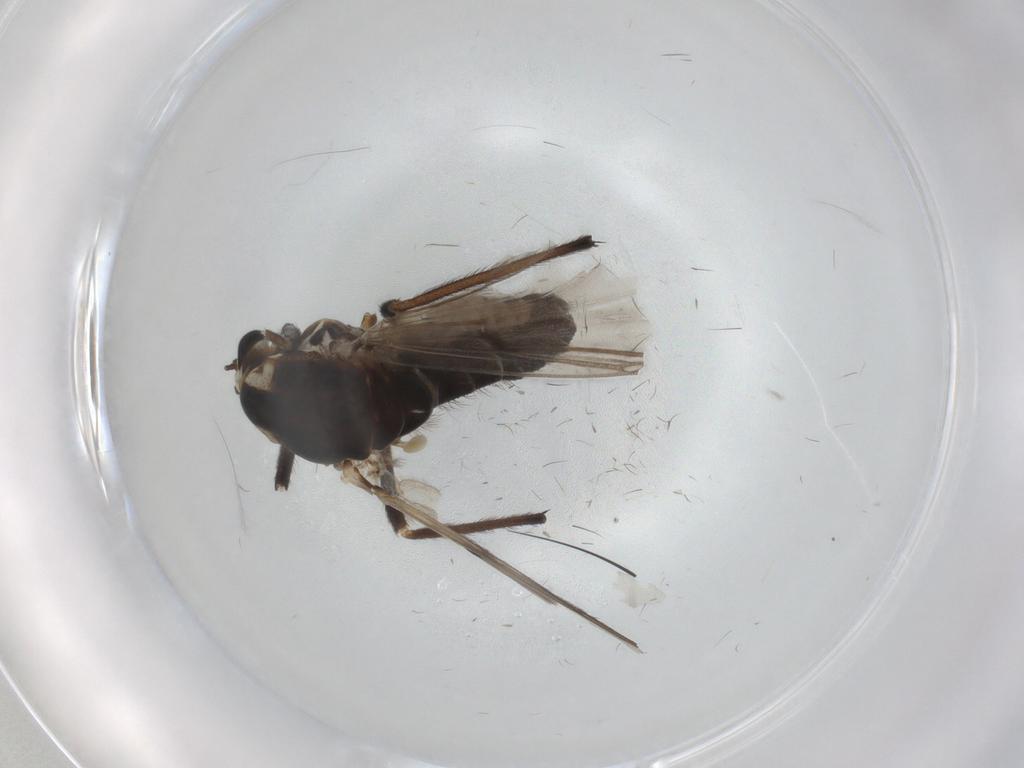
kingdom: Animalia
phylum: Arthropoda
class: Insecta
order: Diptera
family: Chironomidae
